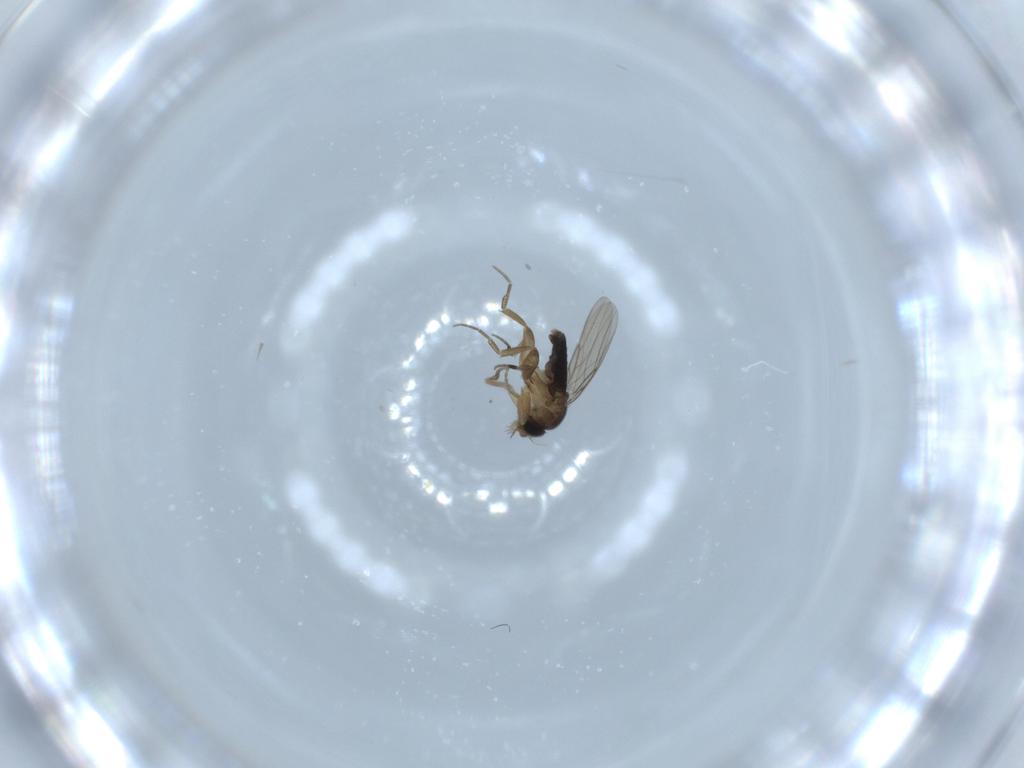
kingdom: Animalia
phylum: Arthropoda
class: Insecta
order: Diptera
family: Phoridae
